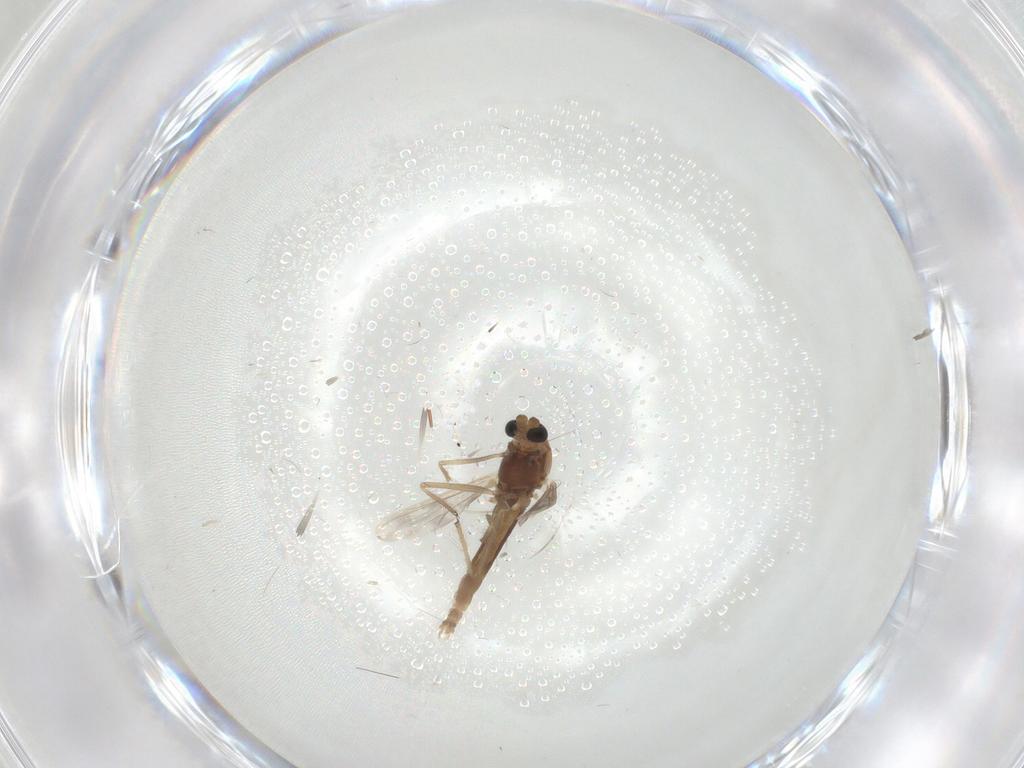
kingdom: Animalia
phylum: Arthropoda
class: Insecta
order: Diptera
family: Chironomidae
